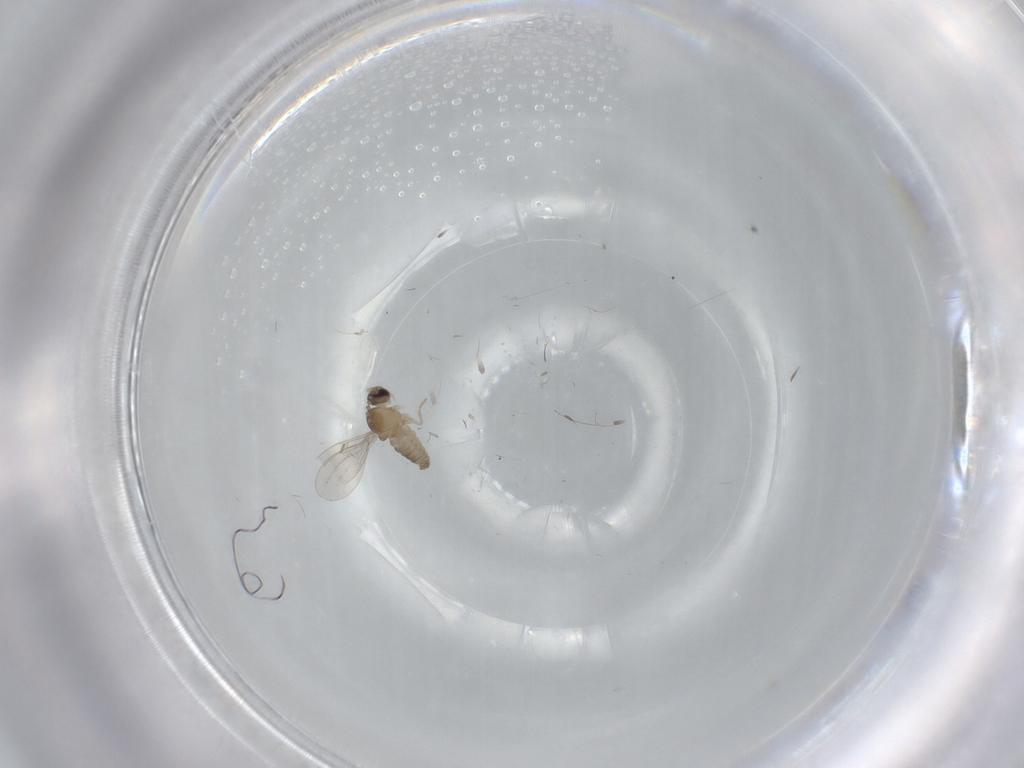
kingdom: Animalia
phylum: Arthropoda
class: Insecta
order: Diptera
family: Cecidomyiidae
